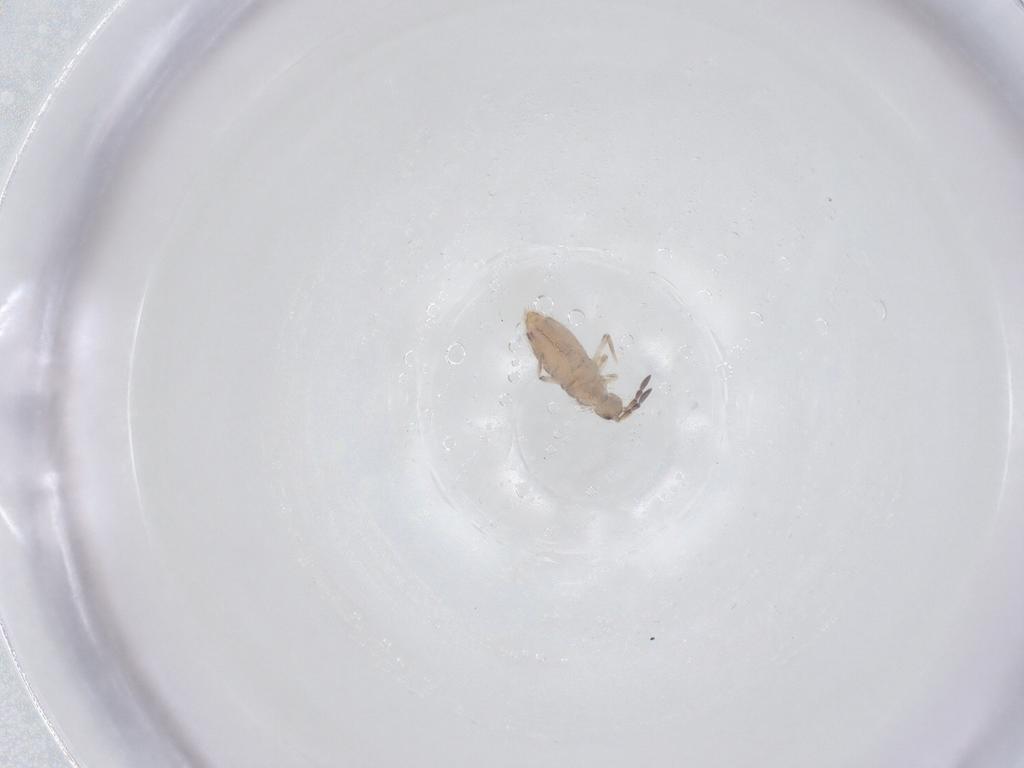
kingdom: Animalia
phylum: Arthropoda
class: Collembola
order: Entomobryomorpha
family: Entomobryidae
